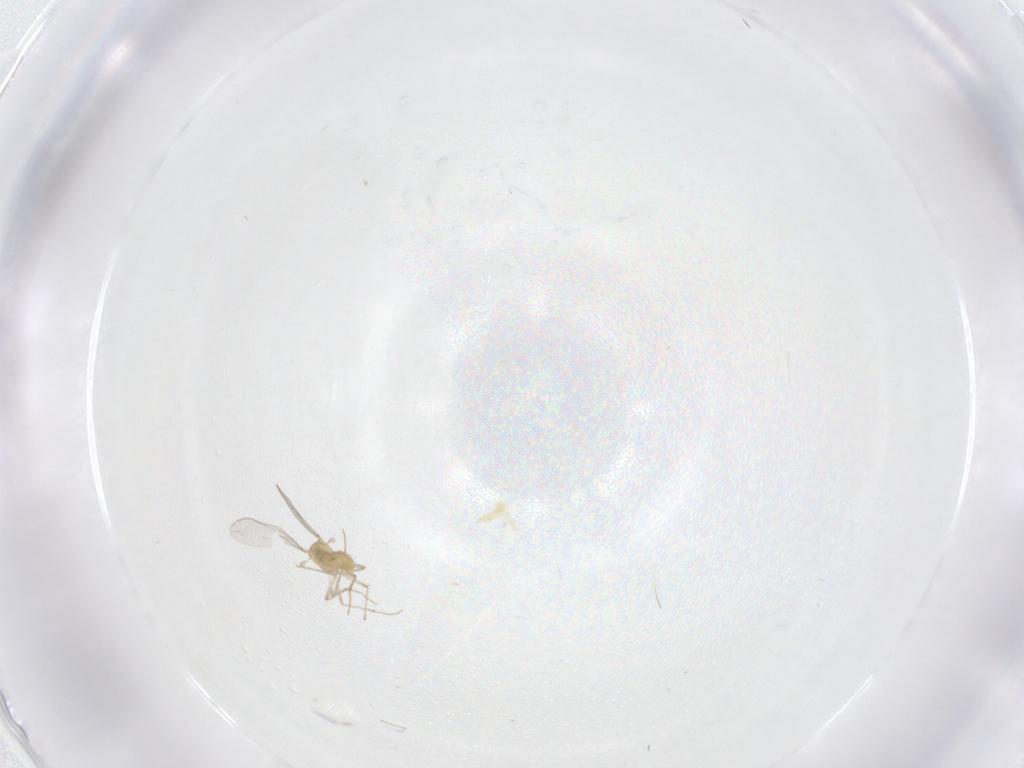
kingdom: Animalia
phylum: Arthropoda
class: Insecta
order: Diptera
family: Chironomidae
